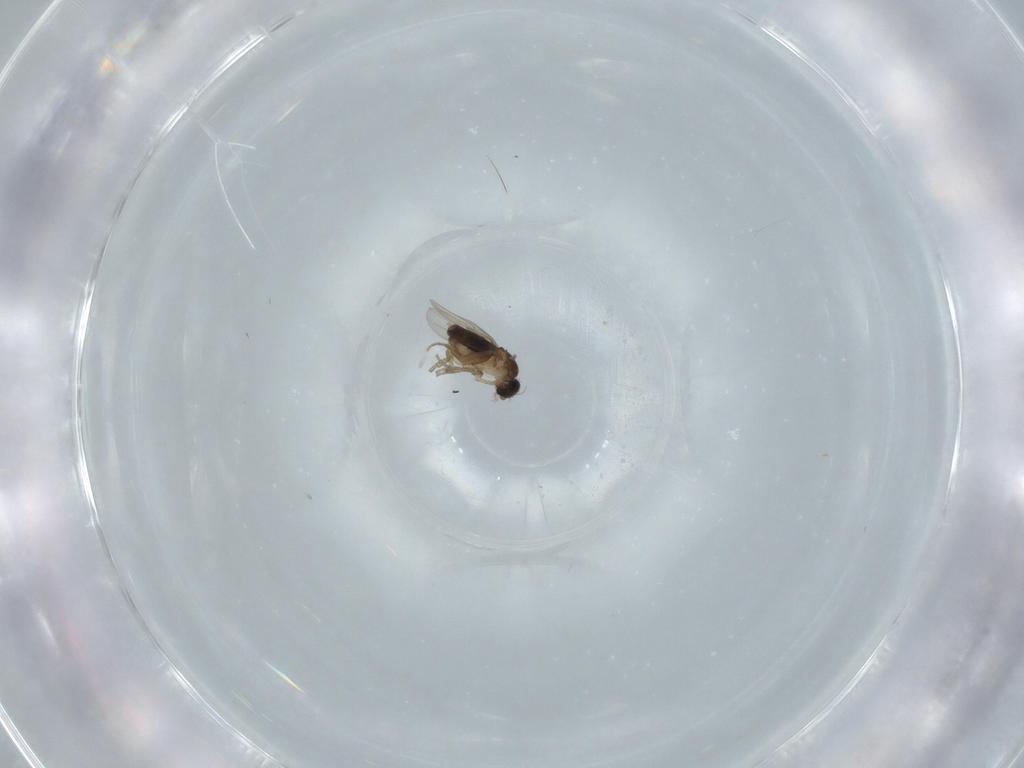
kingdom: Animalia
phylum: Arthropoda
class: Insecta
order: Diptera
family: Phoridae
